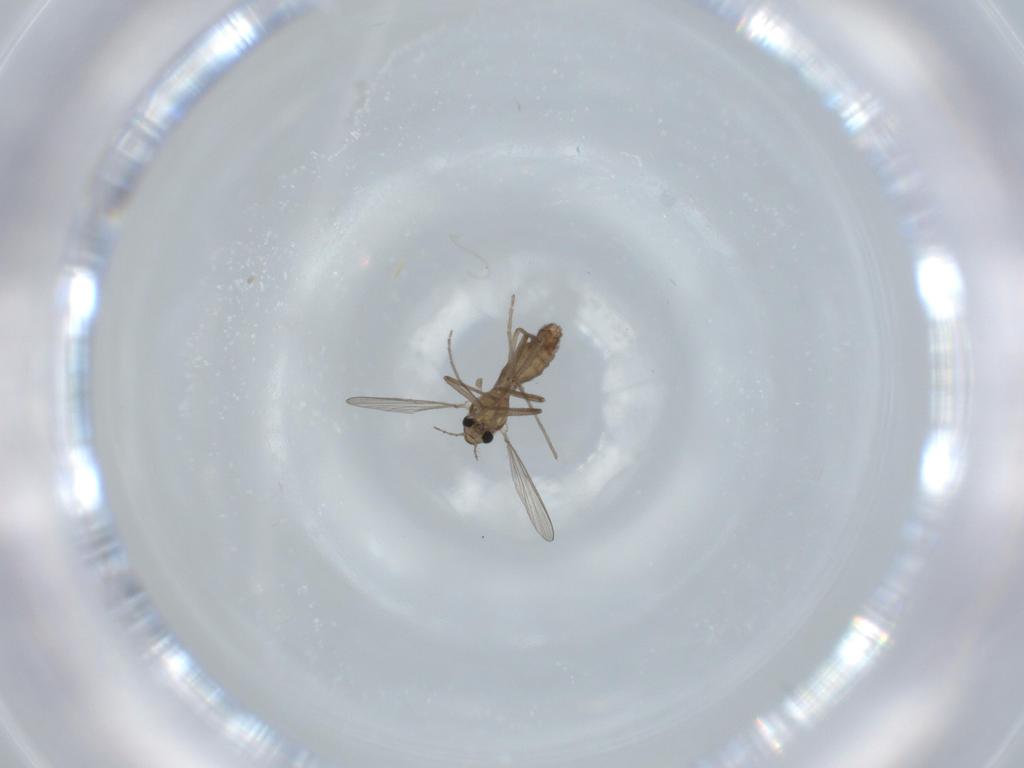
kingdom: Animalia
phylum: Arthropoda
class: Insecta
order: Diptera
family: Chironomidae
